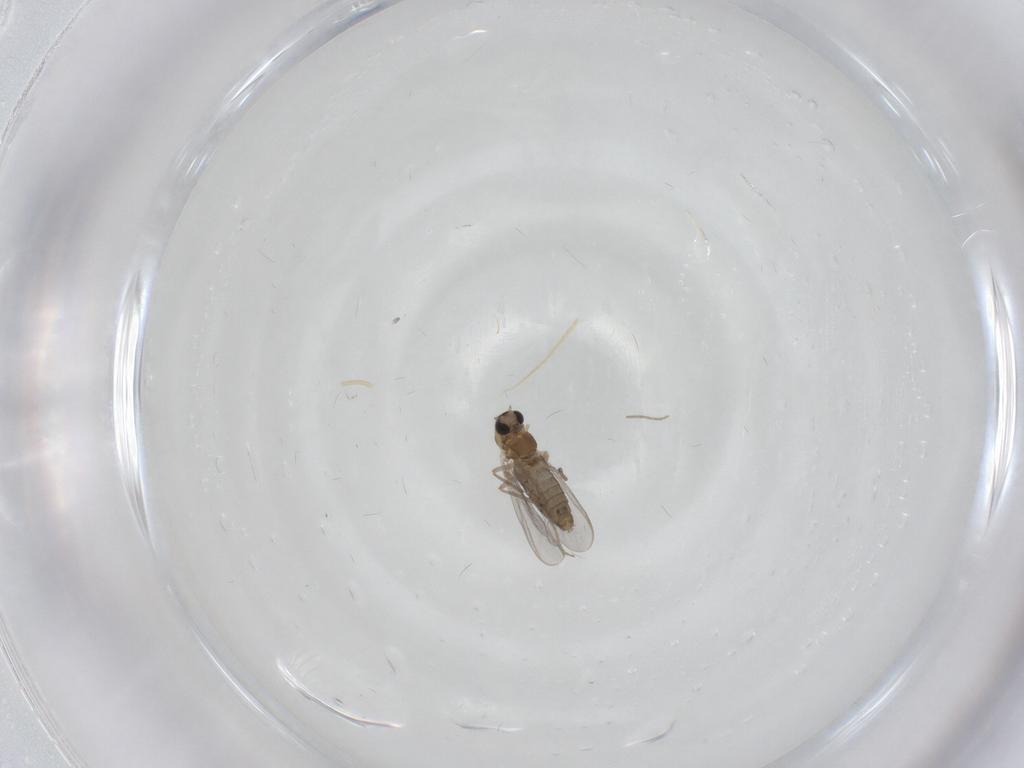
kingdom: Animalia
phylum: Arthropoda
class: Insecta
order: Diptera
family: Chironomidae
